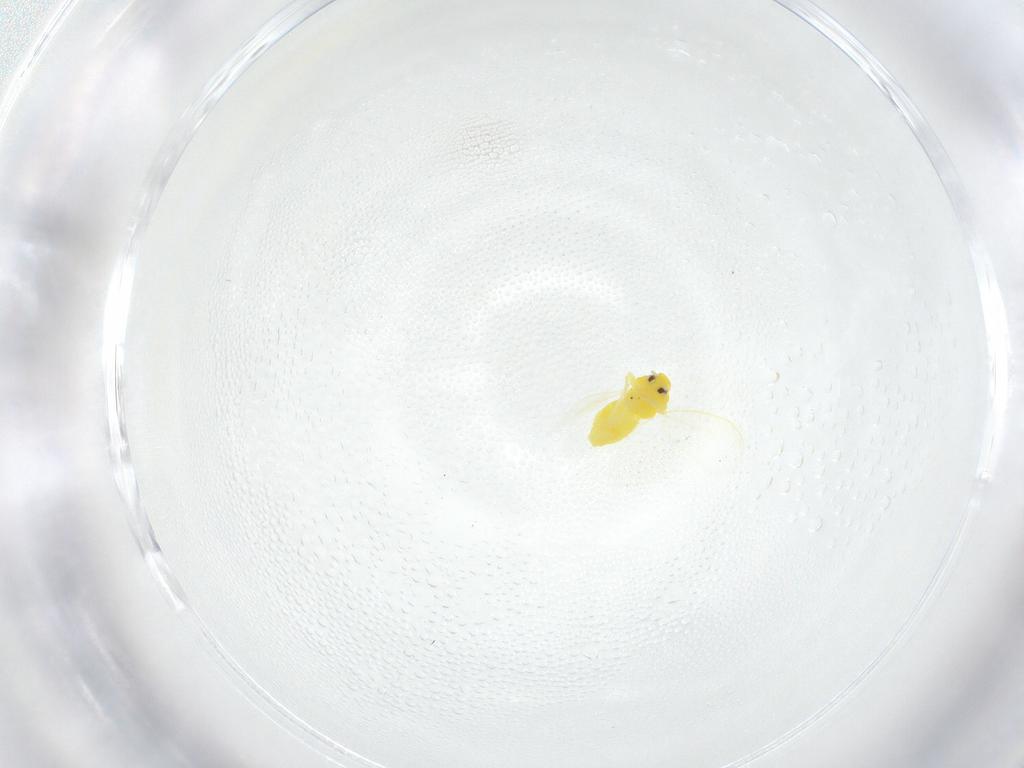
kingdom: Animalia
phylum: Arthropoda
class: Insecta
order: Hemiptera
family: Aleyrodidae
